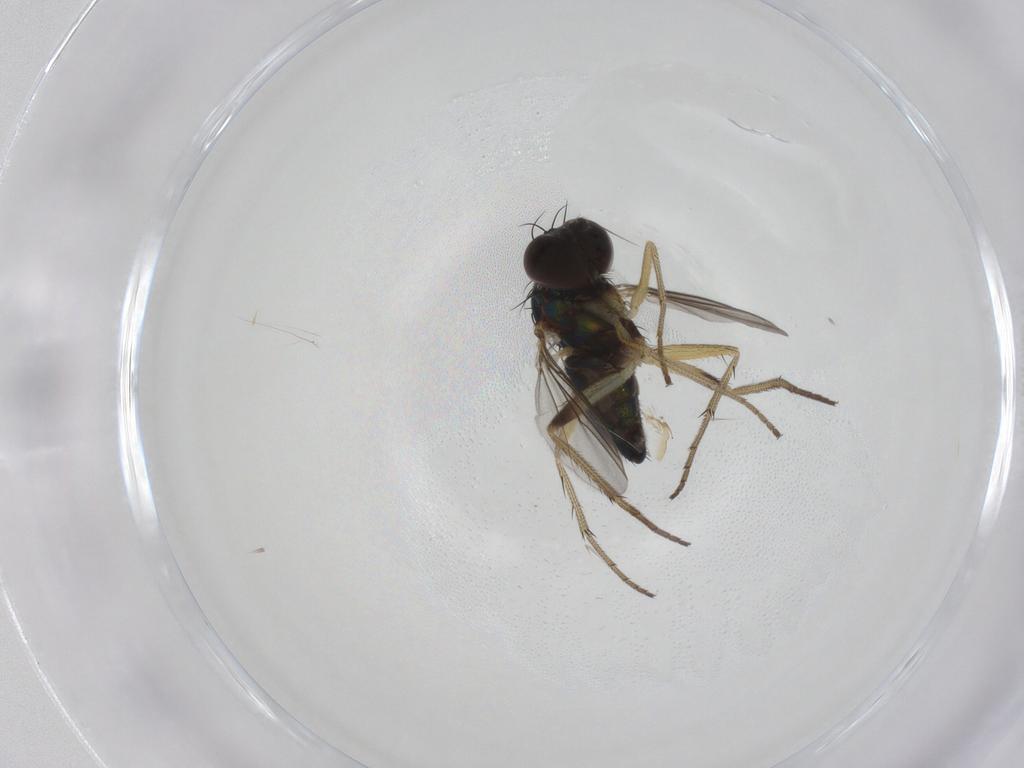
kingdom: Animalia
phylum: Arthropoda
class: Insecta
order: Diptera
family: Dolichopodidae
